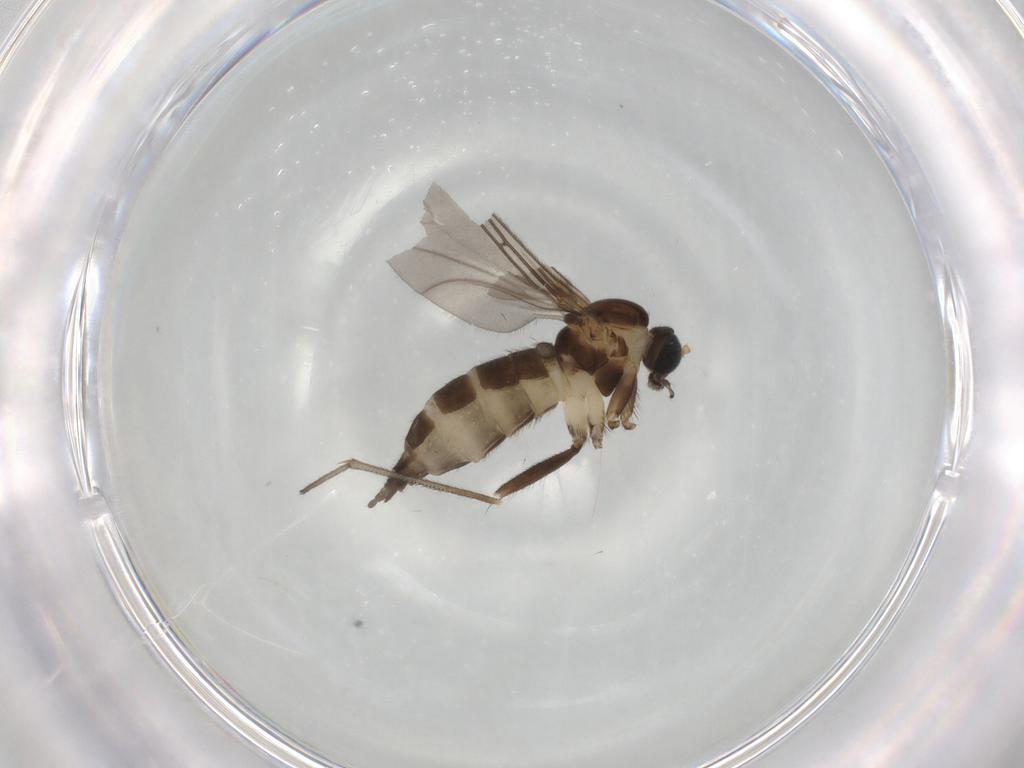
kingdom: Animalia
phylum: Arthropoda
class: Insecta
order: Diptera
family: Sciaridae
